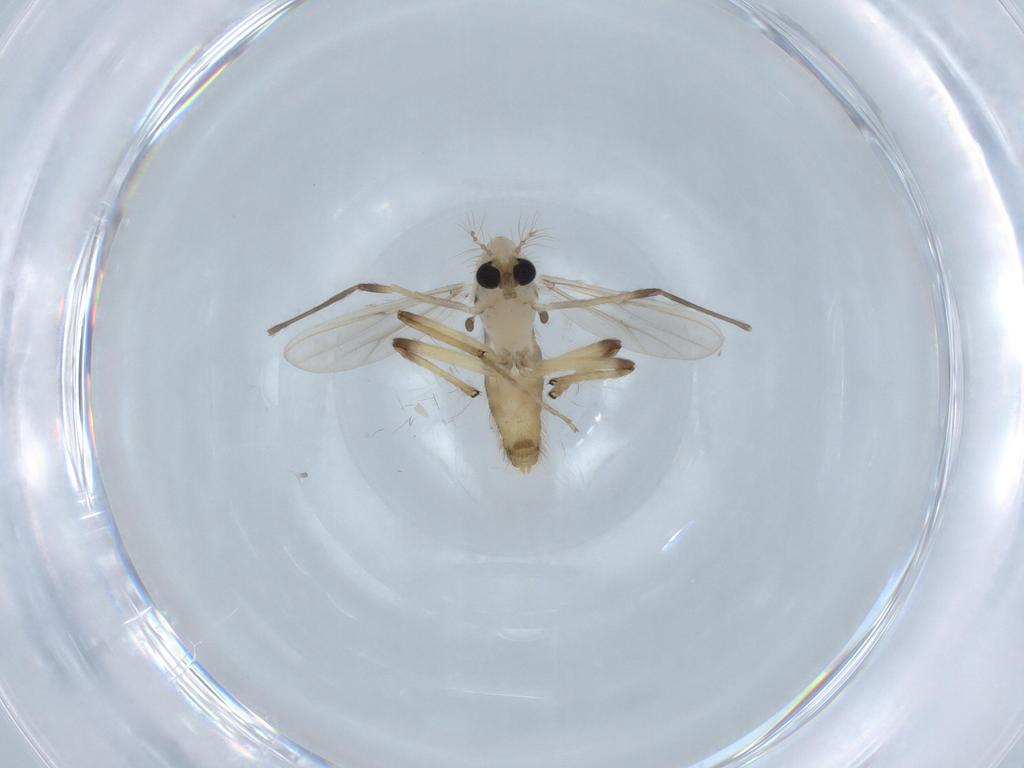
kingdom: Animalia
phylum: Arthropoda
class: Insecta
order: Diptera
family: Chironomidae
